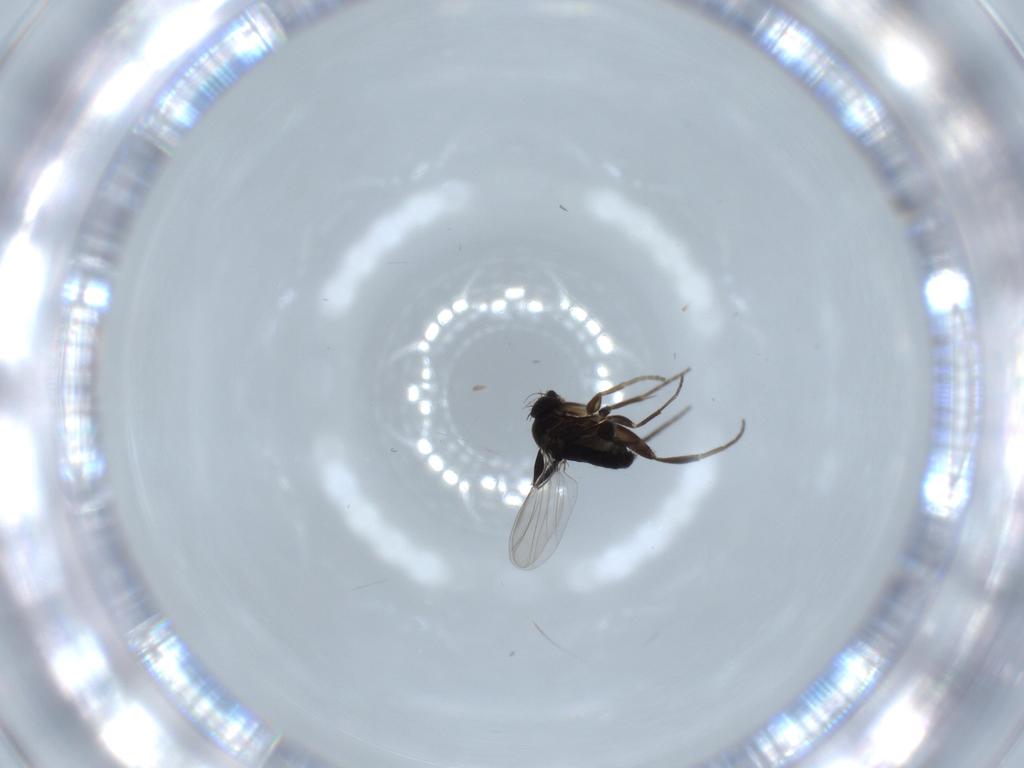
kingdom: Animalia
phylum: Arthropoda
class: Insecta
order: Diptera
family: Phoridae
